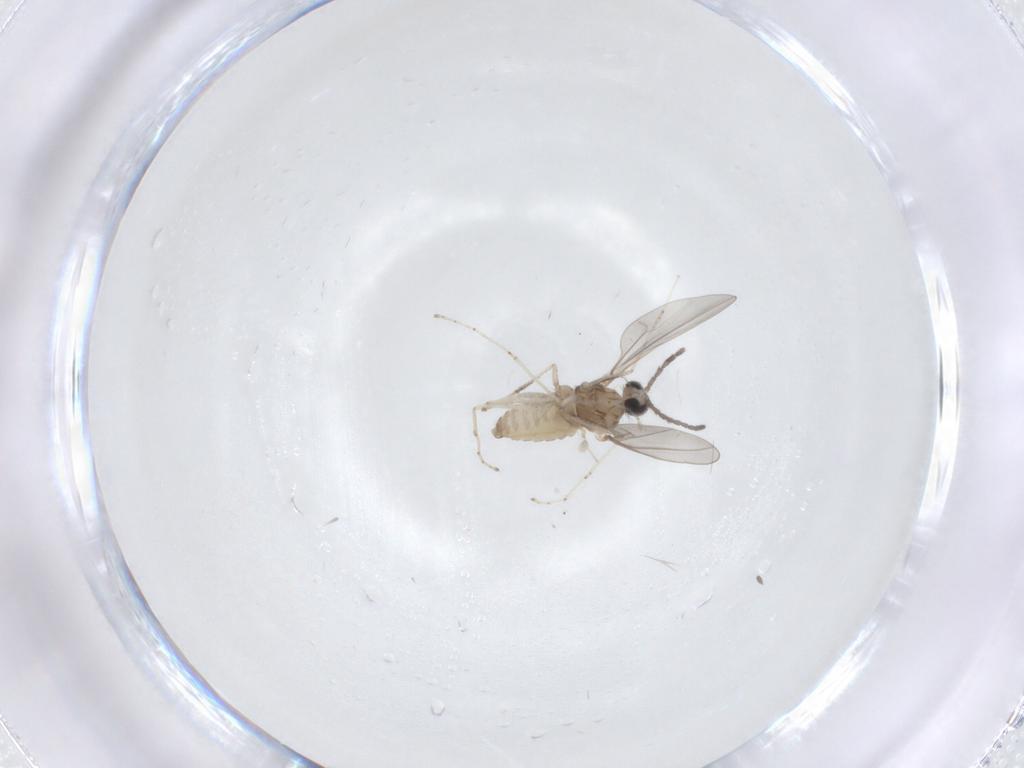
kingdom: Animalia
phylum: Arthropoda
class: Insecta
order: Diptera
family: Cecidomyiidae
